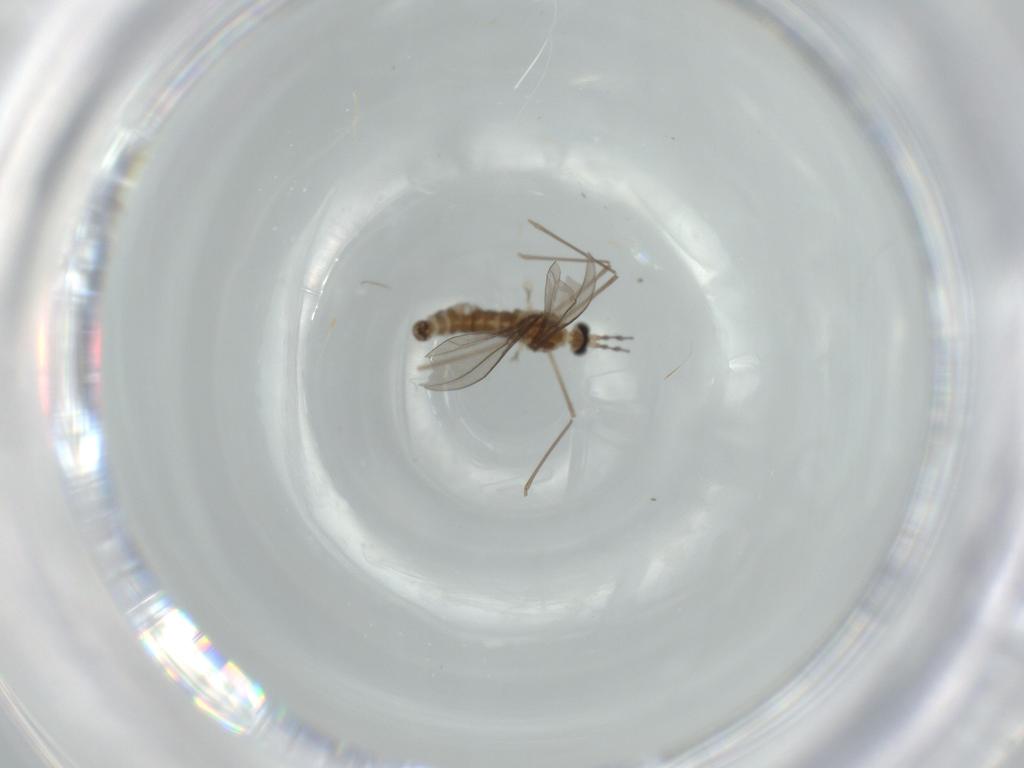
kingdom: Animalia
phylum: Arthropoda
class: Insecta
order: Diptera
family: Cecidomyiidae
